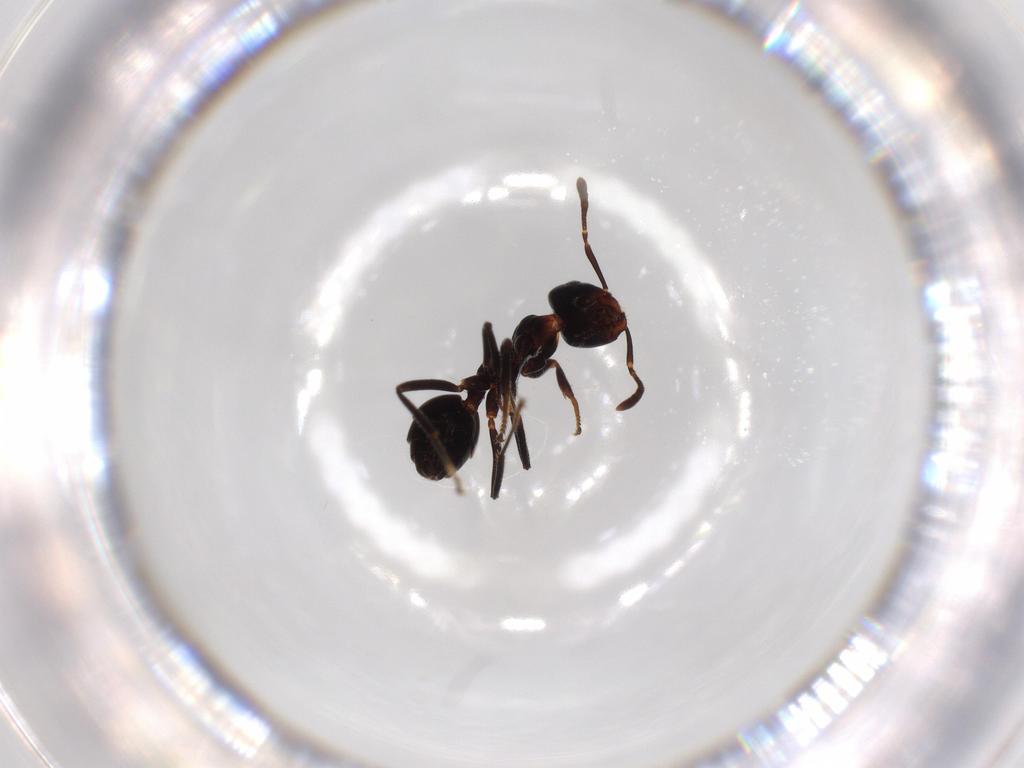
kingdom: Animalia
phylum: Arthropoda
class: Insecta
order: Hymenoptera
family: Formicidae
